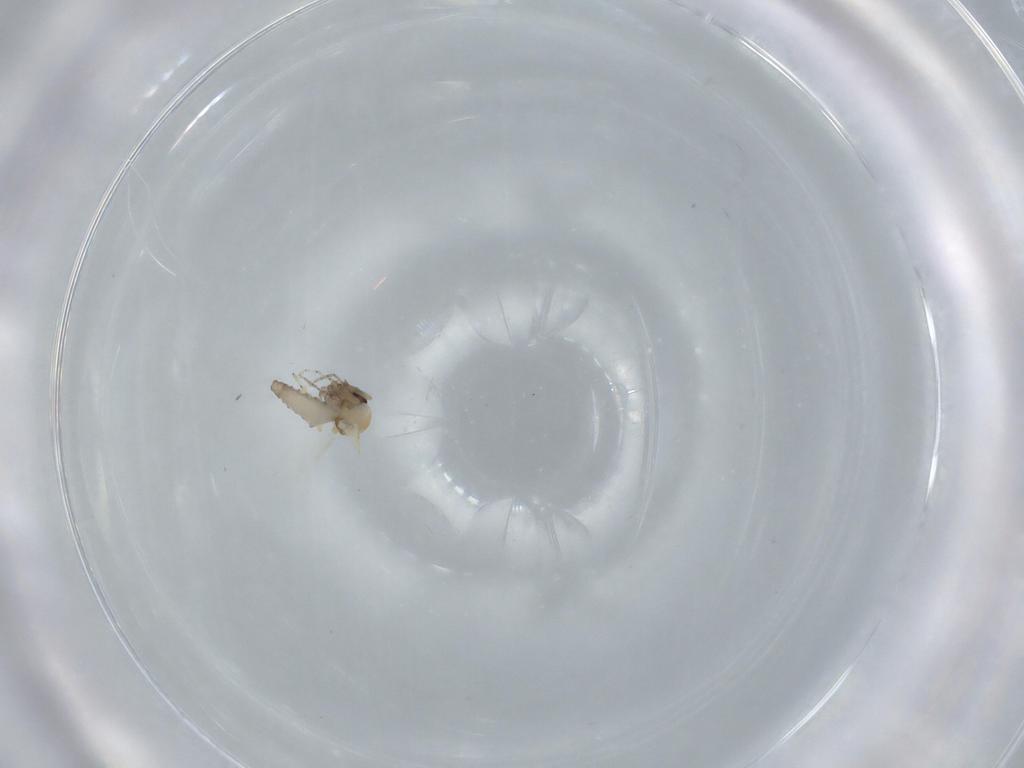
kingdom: Animalia
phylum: Arthropoda
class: Insecta
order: Diptera
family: Ceratopogonidae
